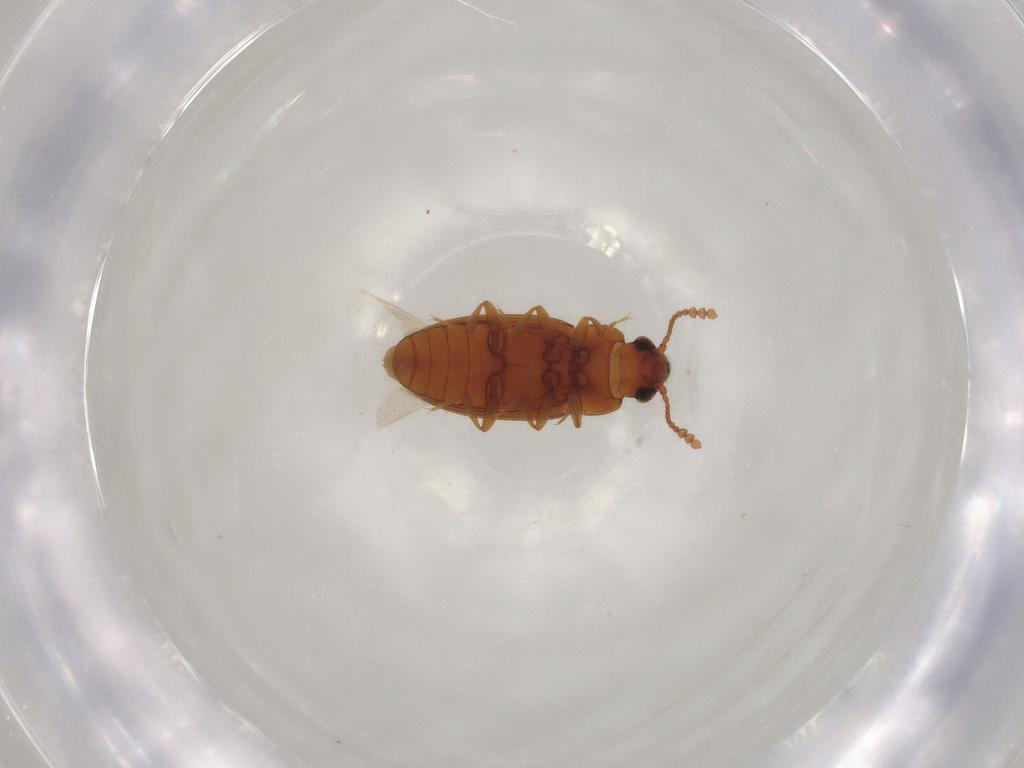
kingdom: Animalia
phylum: Arthropoda
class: Insecta
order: Coleoptera
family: Erotylidae
